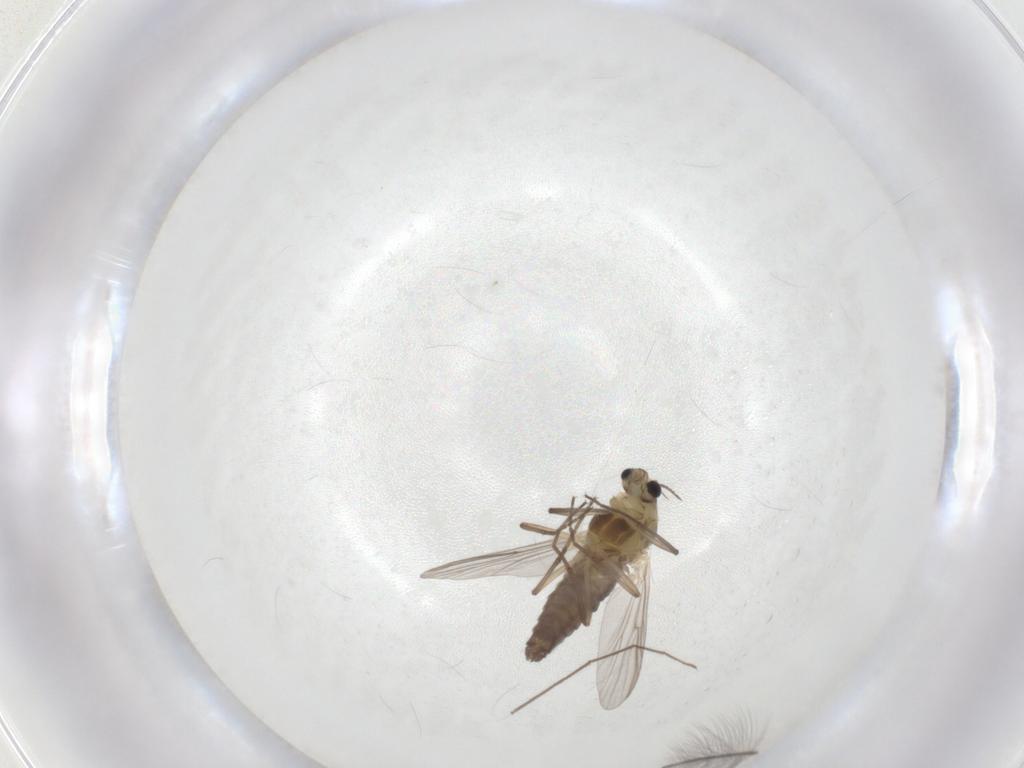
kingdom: Animalia
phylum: Arthropoda
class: Insecta
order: Diptera
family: Chironomidae
